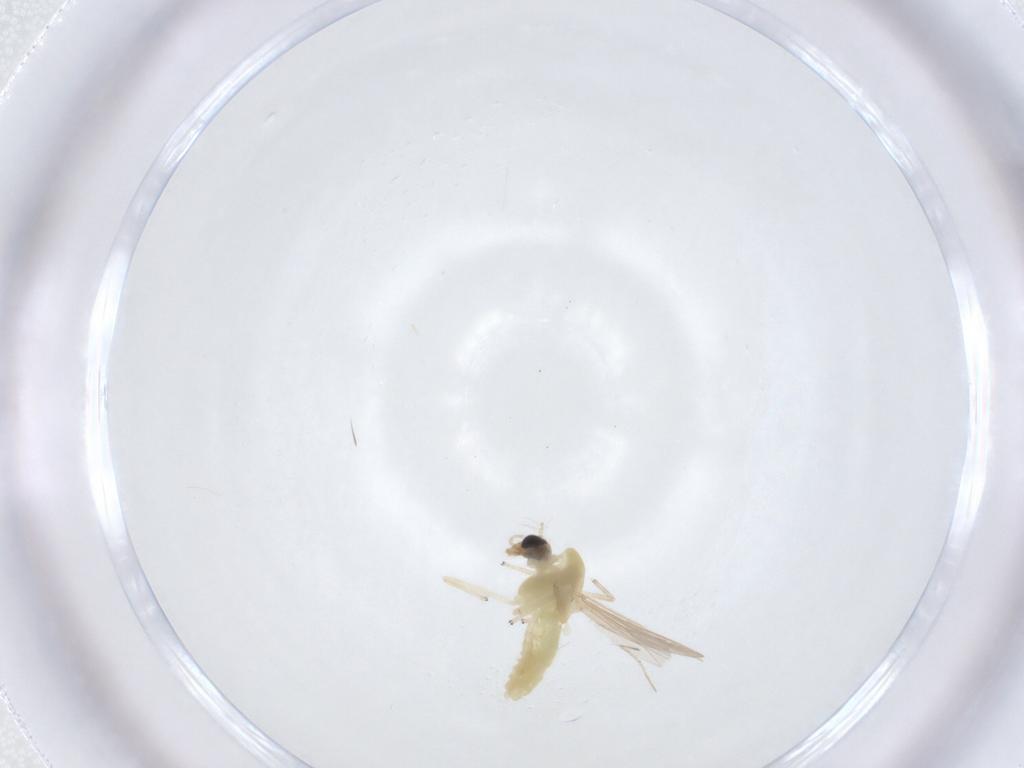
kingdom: Animalia
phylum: Arthropoda
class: Insecta
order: Diptera
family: Chironomidae
